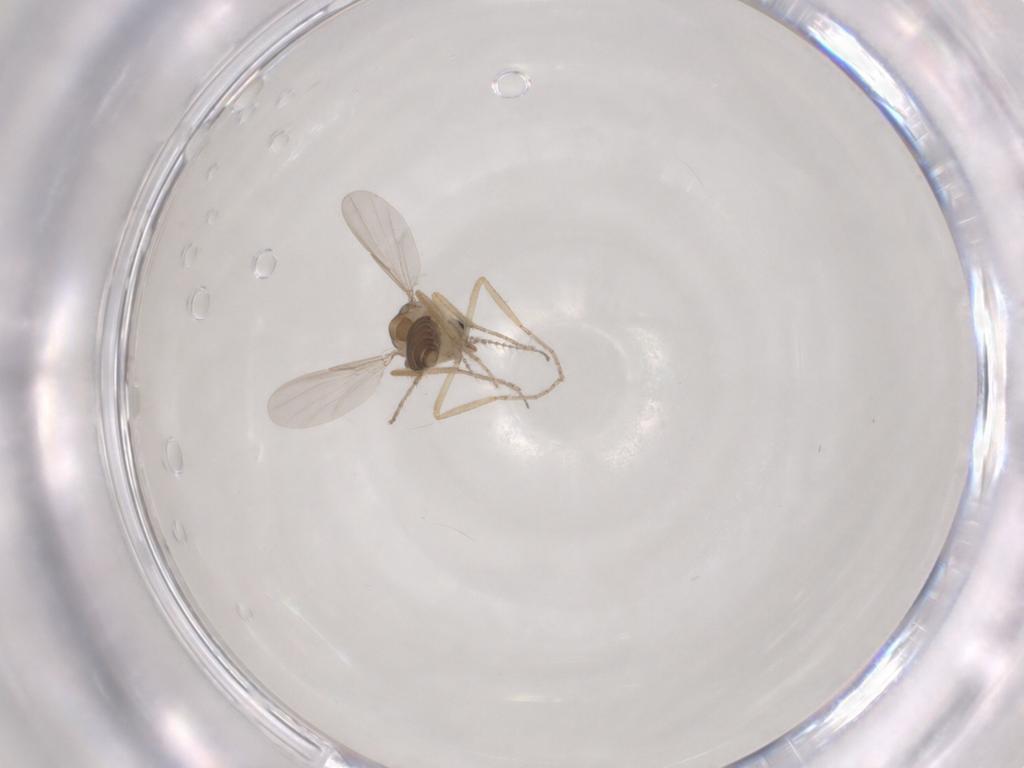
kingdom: Animalia
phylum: Arthropoda
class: Insecta
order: Diptera
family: Ceratopogonidae
